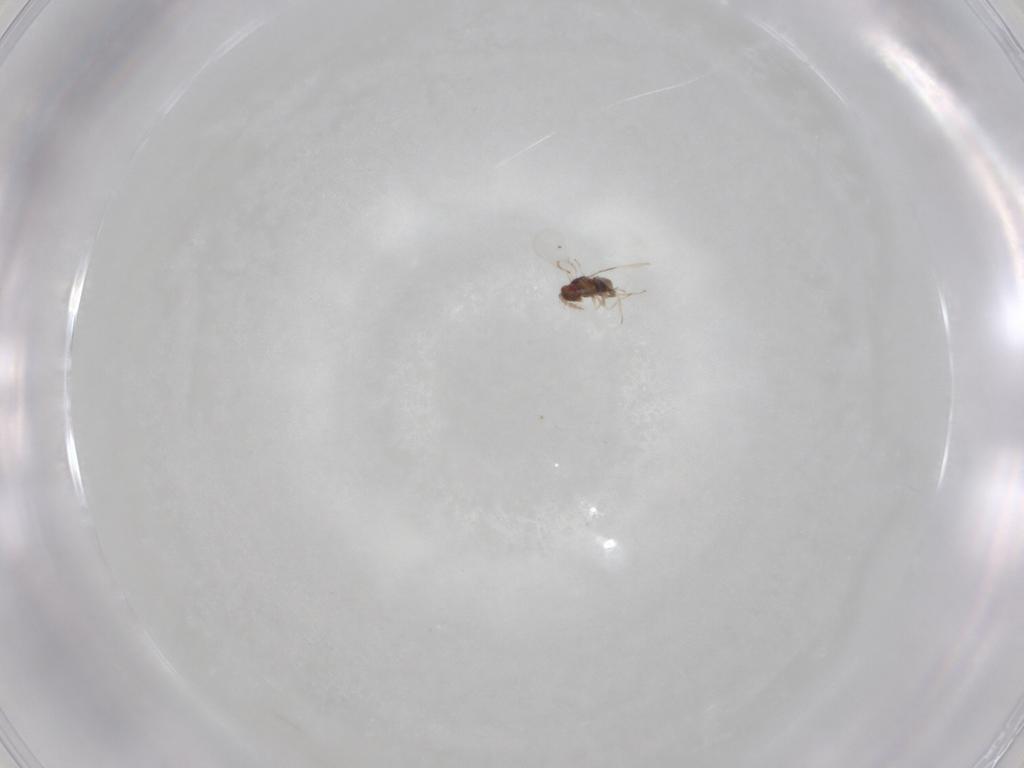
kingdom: Animalia
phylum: Arthropoda
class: Insecta
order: Hymenoptera
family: Trichogrammatidae
